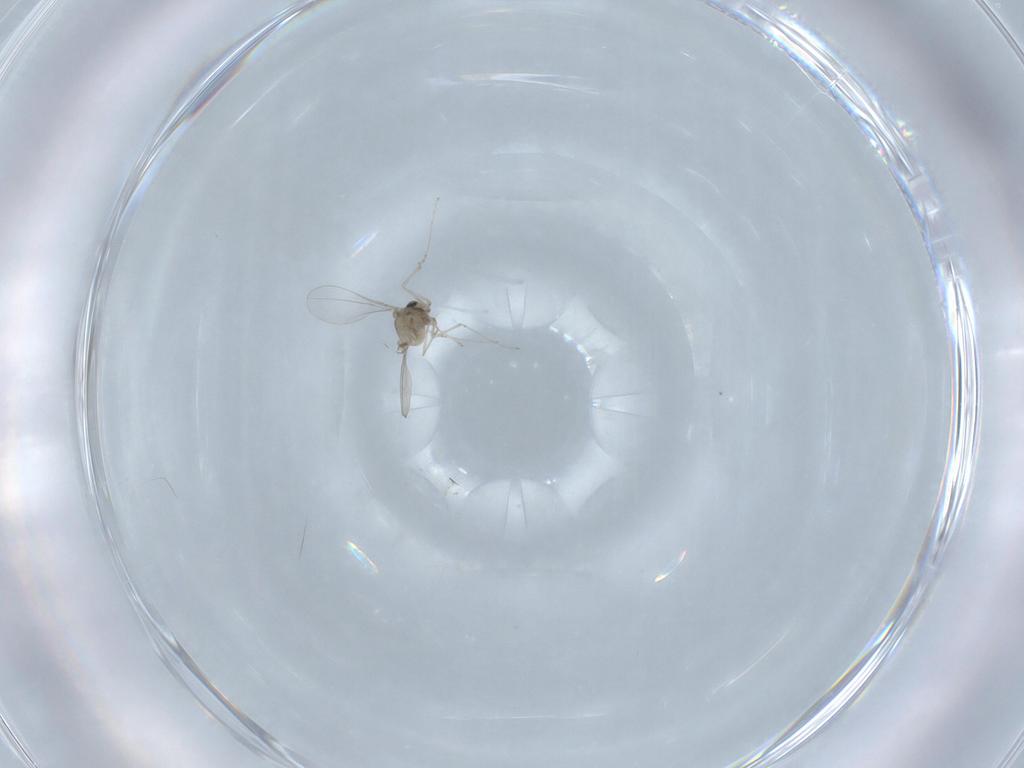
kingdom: Animalia
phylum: Arthropoda
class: Insecta
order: Diptera
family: Cecidomyiidae
